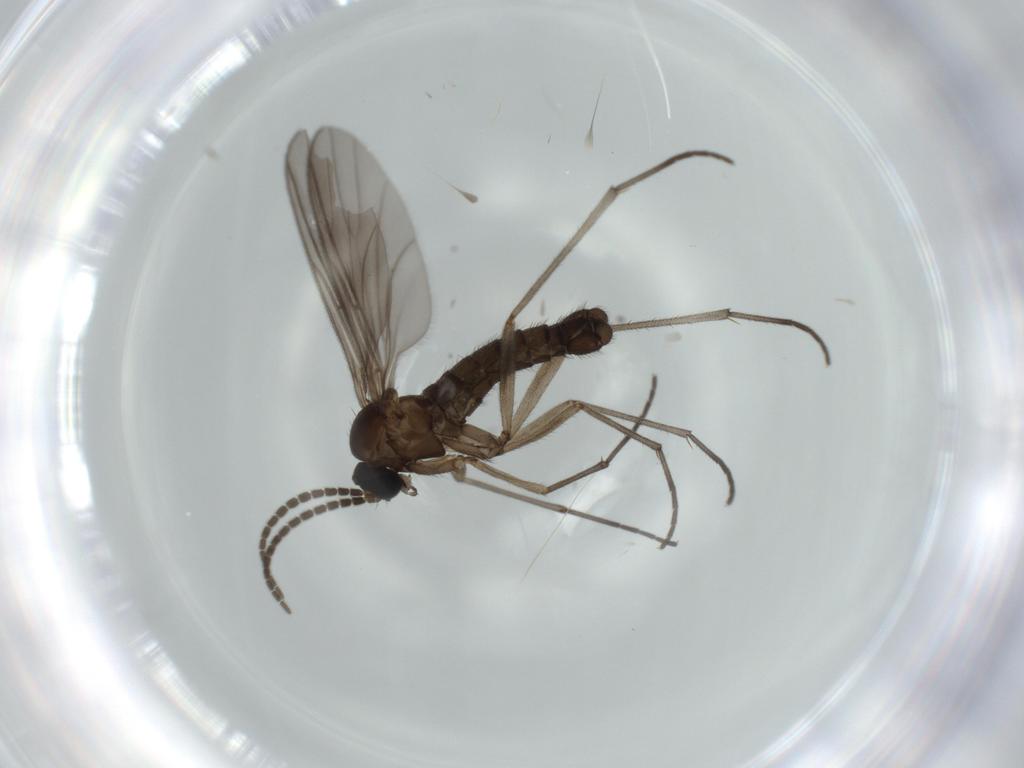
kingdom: Animalia
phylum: Arthropoda
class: Insecta
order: Diptera
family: Sciaridae
